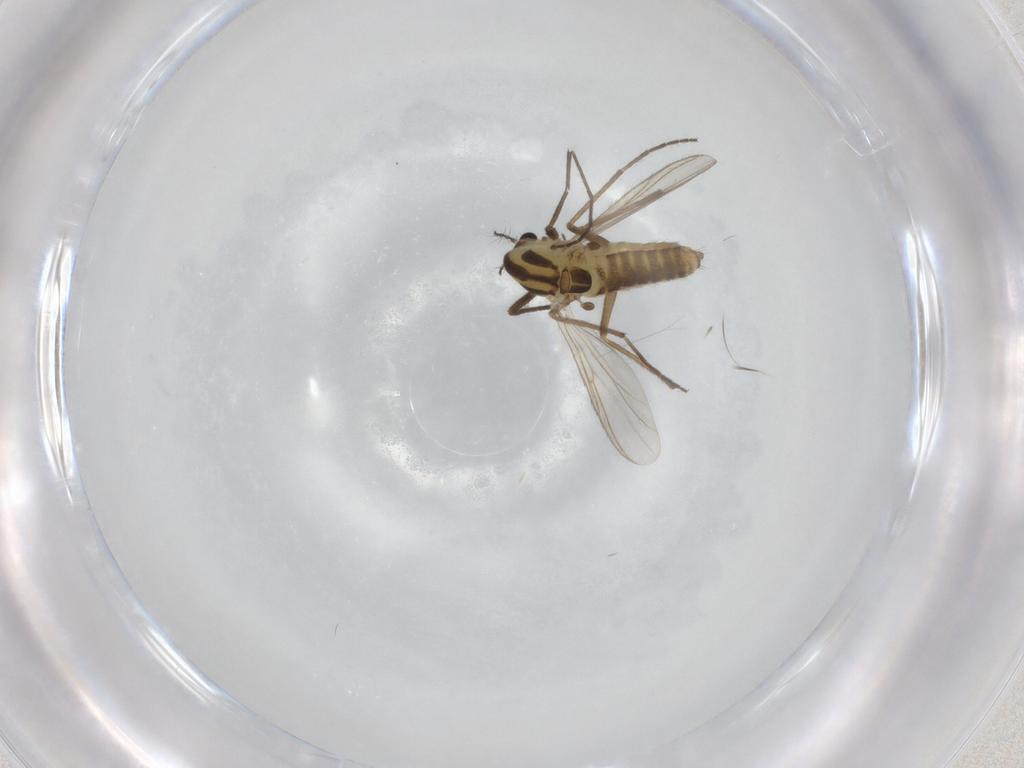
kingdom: Animalia
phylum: Arthropoda
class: Insecta
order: Diptera
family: Chironomidae
